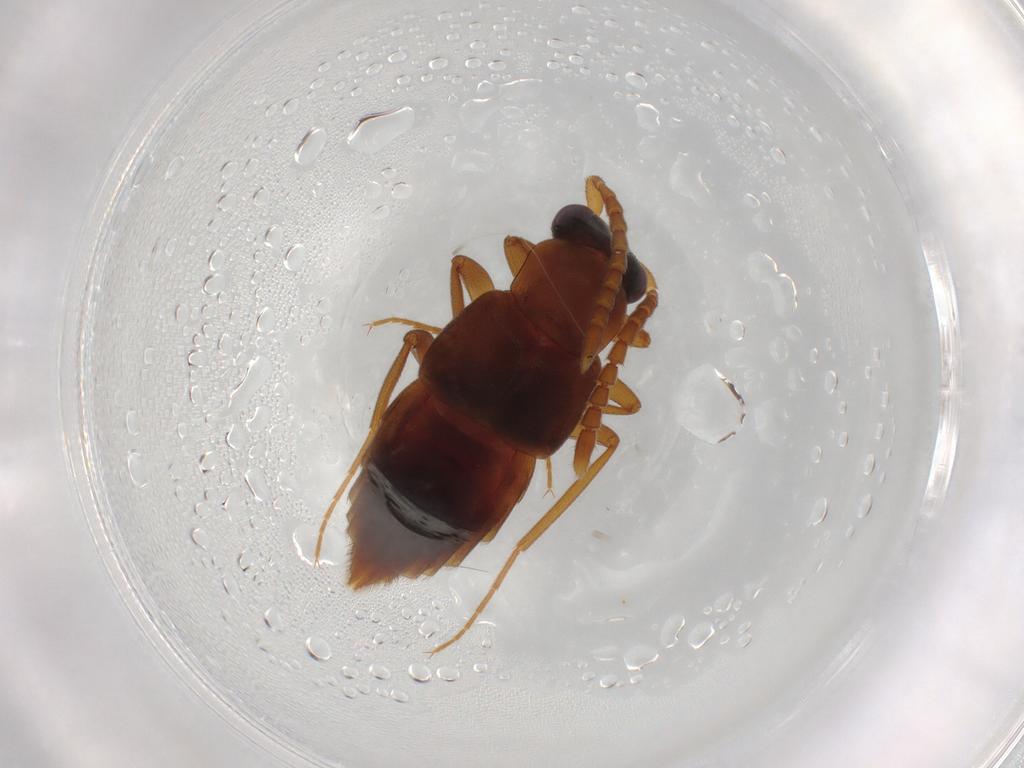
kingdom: Animalia
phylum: Arthropoda
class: Insecta
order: Coleoptera
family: Staphylinidae
